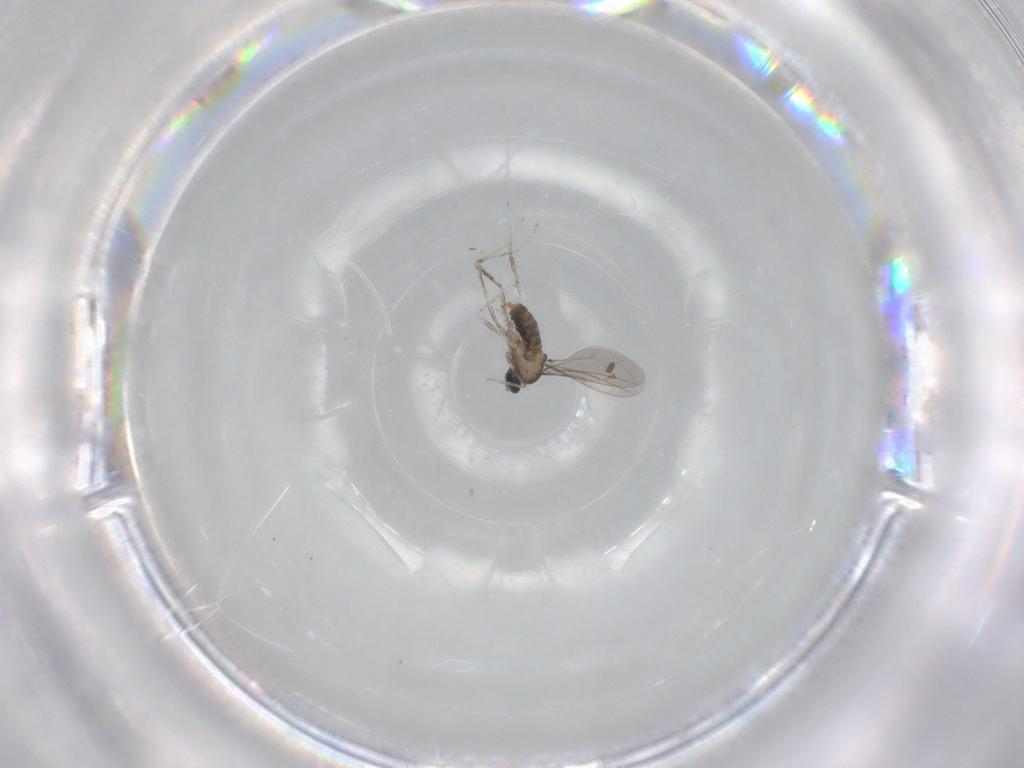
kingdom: Animalia
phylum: Arthropoda
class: Insecta
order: Diptera
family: Cecidomyiidae
